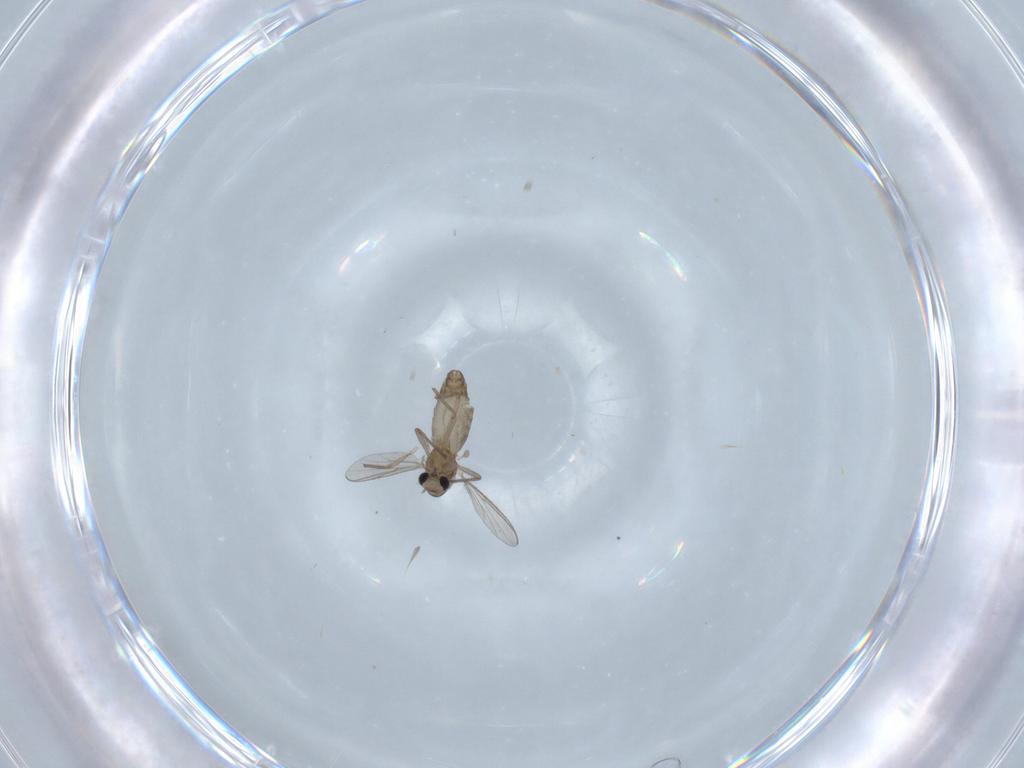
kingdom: Animalia
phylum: Arthropoda
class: Insecta
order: Diptera
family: Chironomidae
